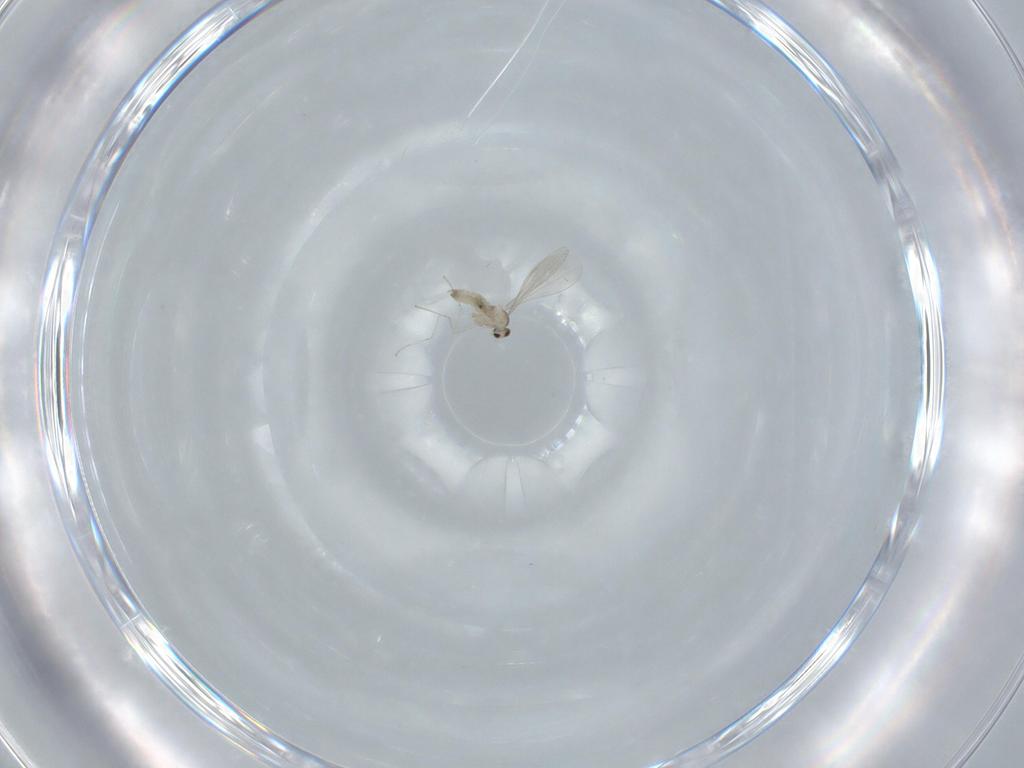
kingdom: Animalia
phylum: Arthropoda
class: Insecta
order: Diptera
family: Cecidomyiidae
